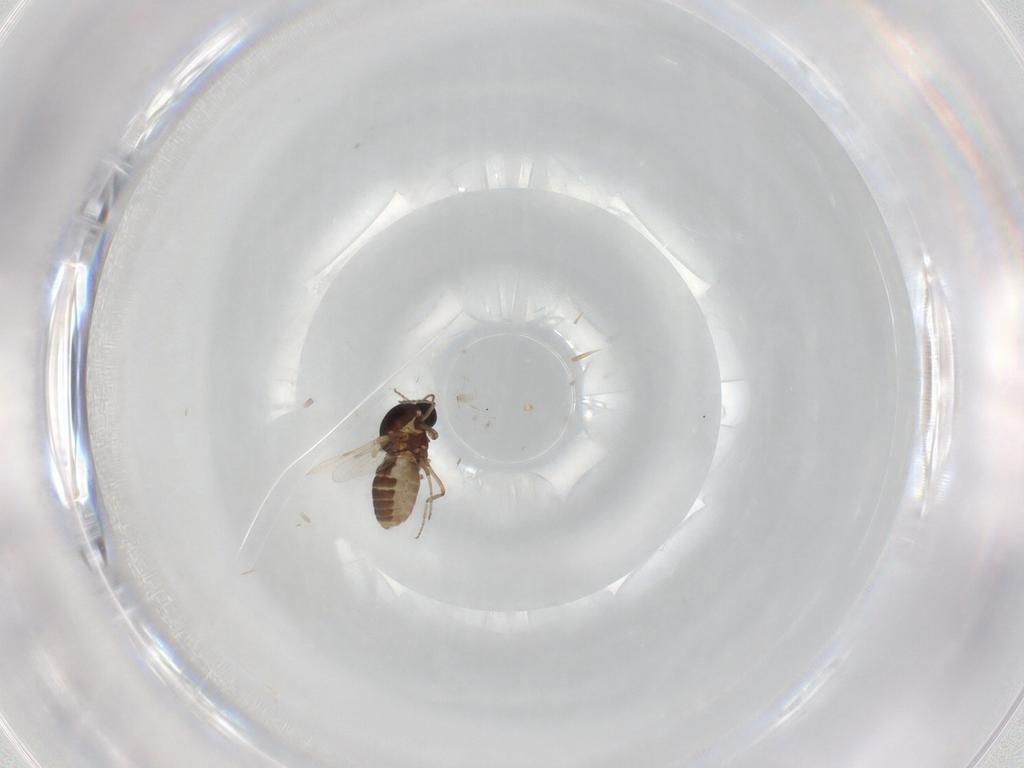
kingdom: Animalia
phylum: Arthropoda
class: Insecta
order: Diptera
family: Ceratopogonidae
